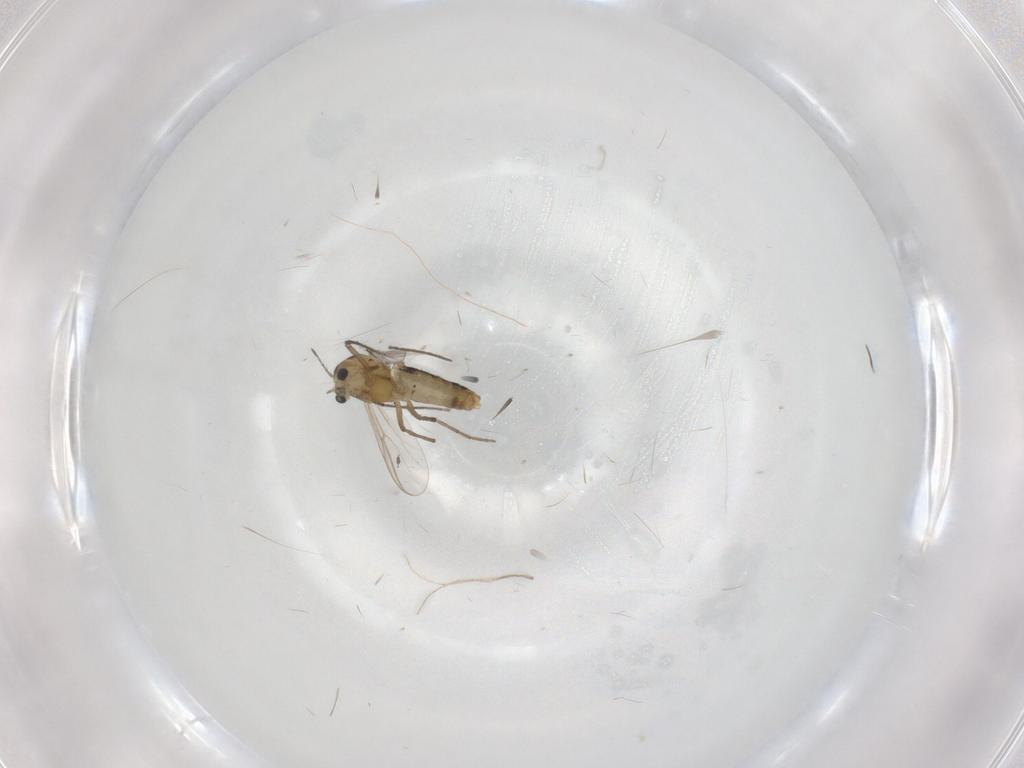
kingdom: Animalia
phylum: Arthropoda
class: Insecta
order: Diptera
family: Chironomidae
